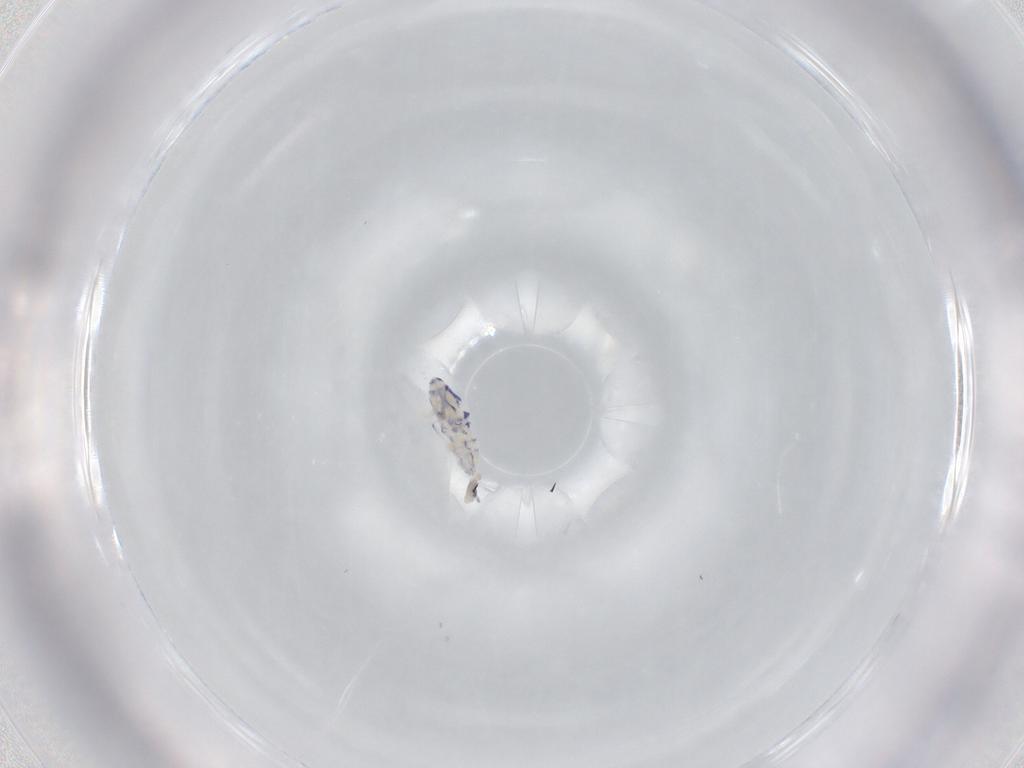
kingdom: Animalia
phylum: Arthropoda
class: Collembola
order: Entomobryomorpha
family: Entomobryidae
